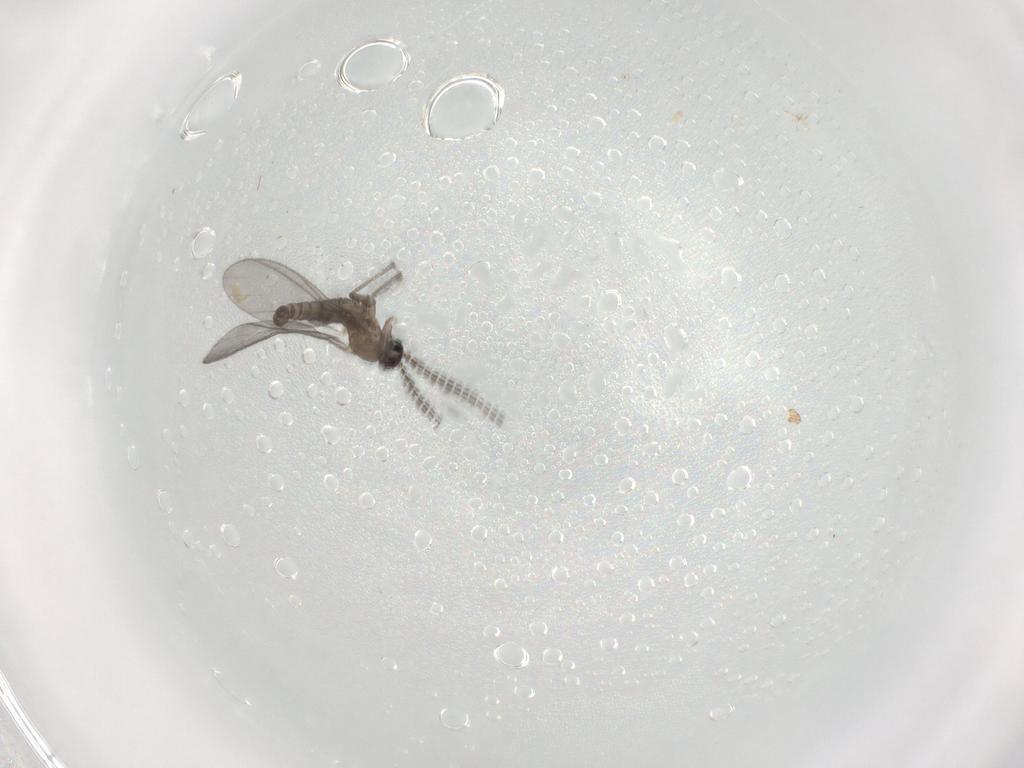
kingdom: Animalia
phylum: Arthropoda
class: Insecta
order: Diptera
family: Sciaridae
